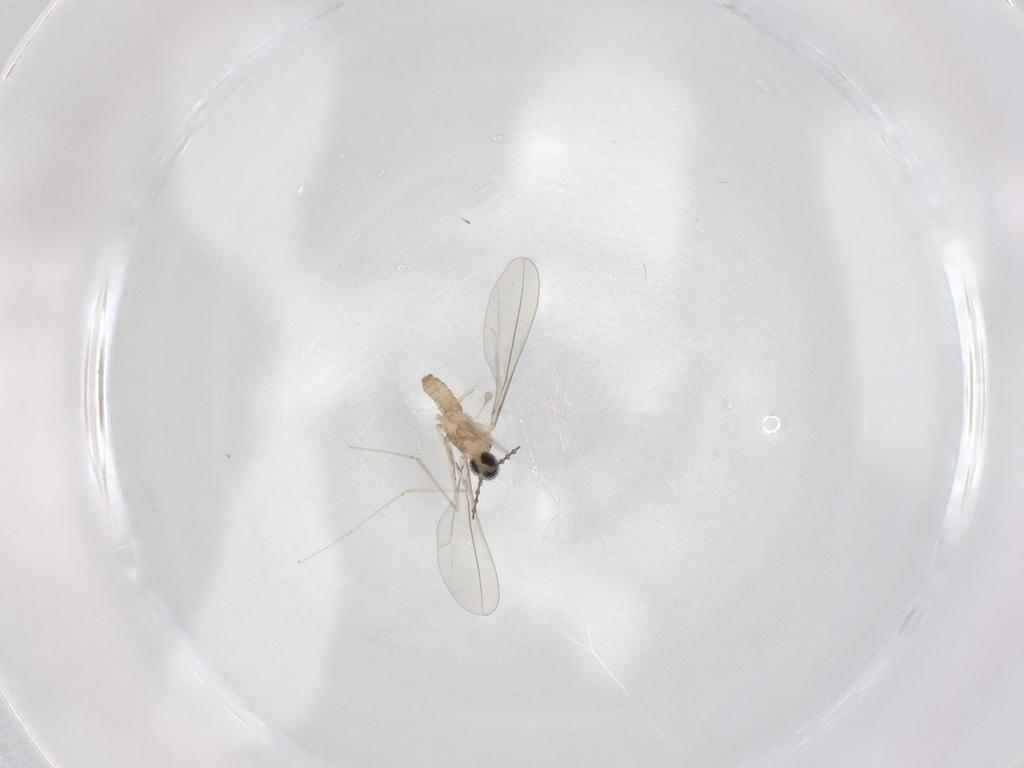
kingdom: Animalia
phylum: Arthropoda
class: Insecta
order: Diptera
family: Cecidomyiidae
